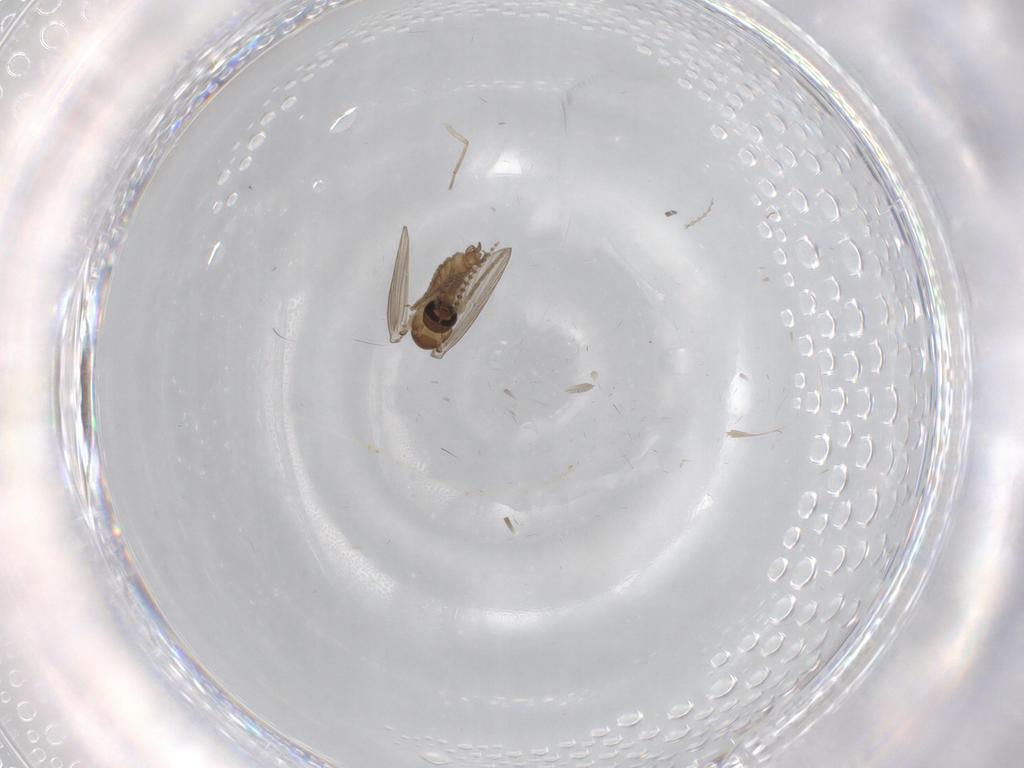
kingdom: Animalia
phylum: Arthropoda
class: Insecta
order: Diptera
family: Psychodidae
